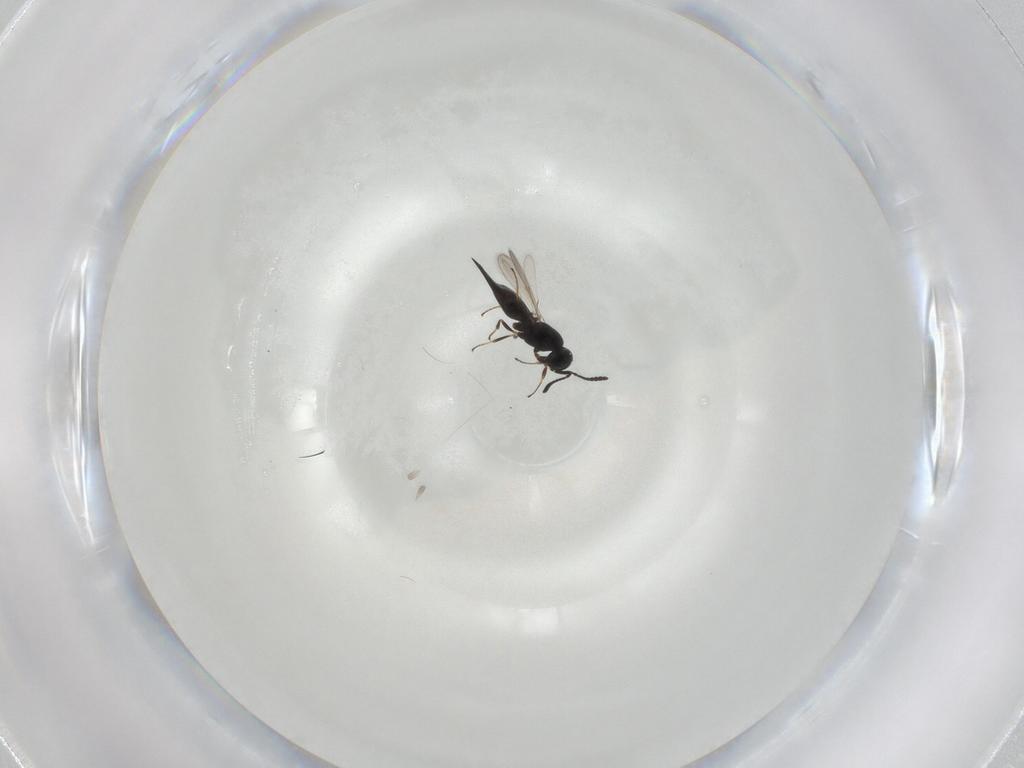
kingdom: Animalia
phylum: Arthropoda
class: Insecta
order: Hymenoptera
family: Scelionidae
